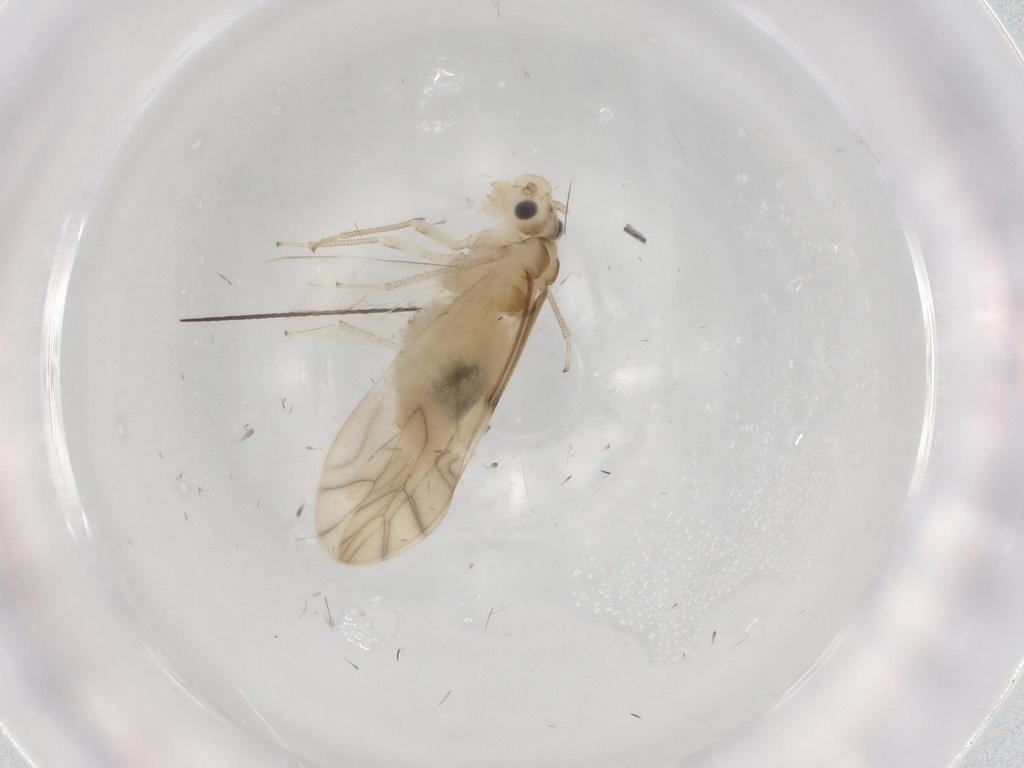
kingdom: Animalia
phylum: Arthropoda
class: Insecta
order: Psocodea
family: Caeciliusidae
